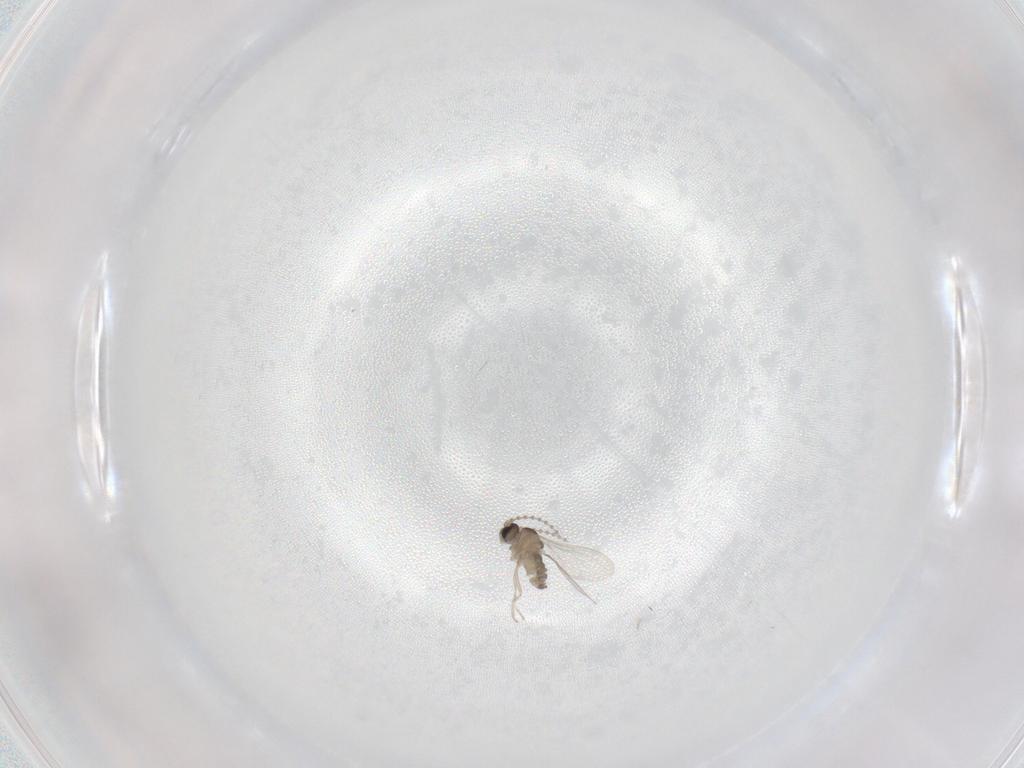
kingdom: Animalia
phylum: Arthropoda
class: Insecta
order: Diptera
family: Cecidomyiidae
